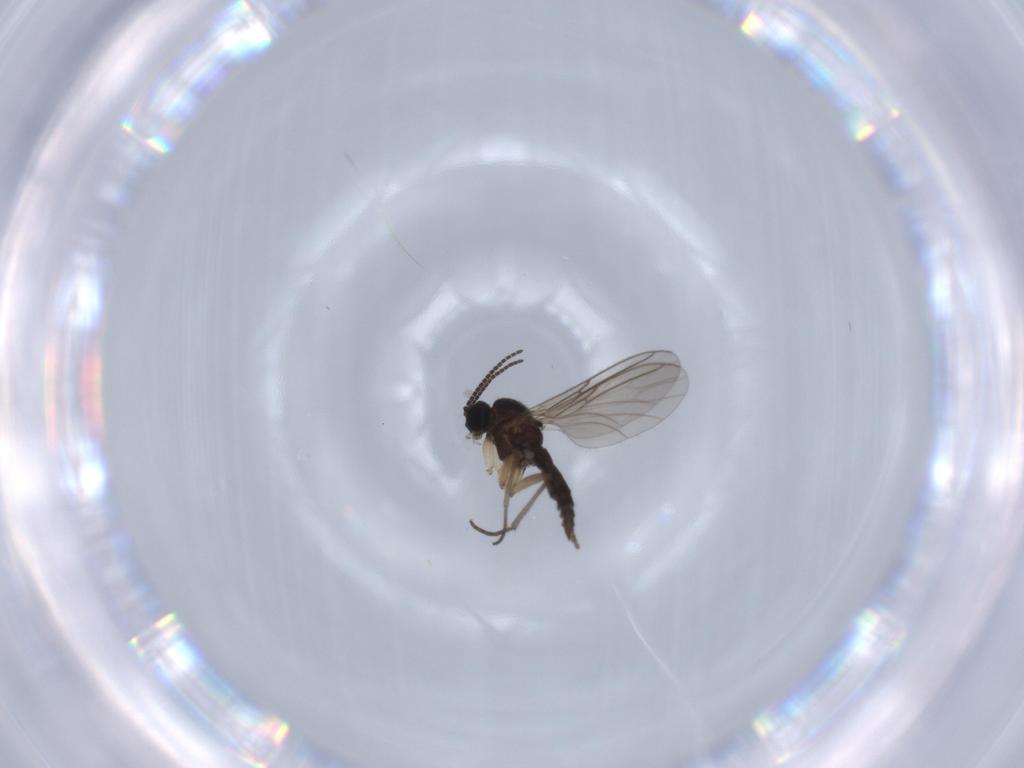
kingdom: Animalia
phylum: Arthropoda
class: Insecta
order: Diptera
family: Sciaridae
